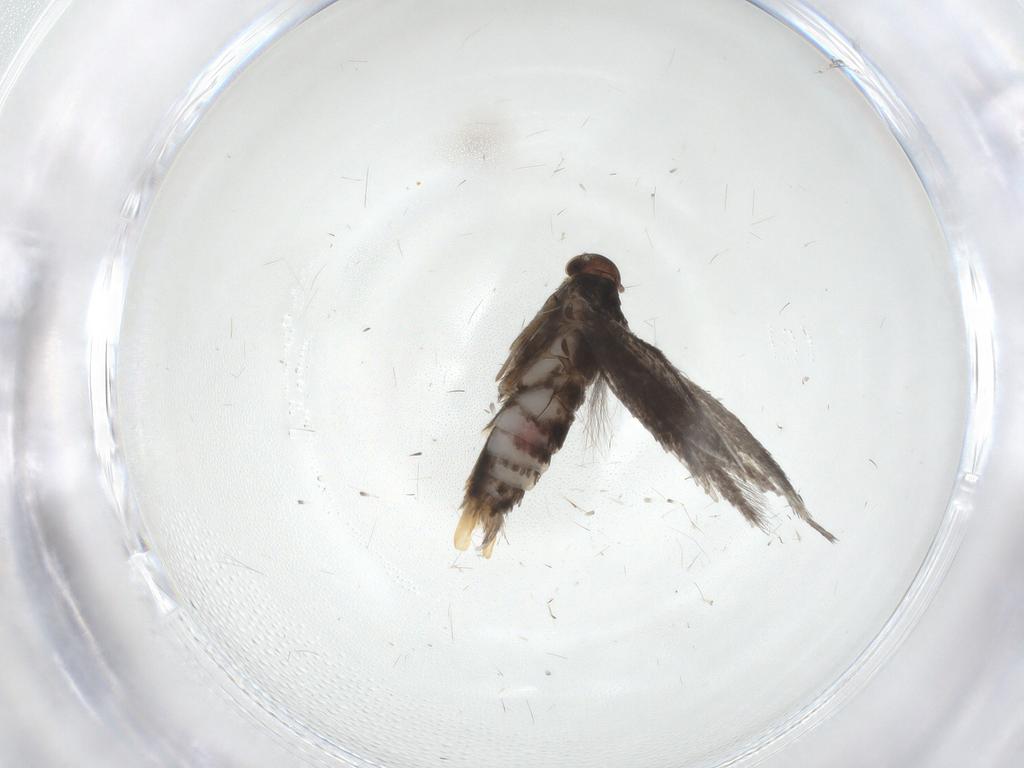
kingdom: Animalia
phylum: Arthropoda
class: Insecta
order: Lepidoptera
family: Elachistidae
